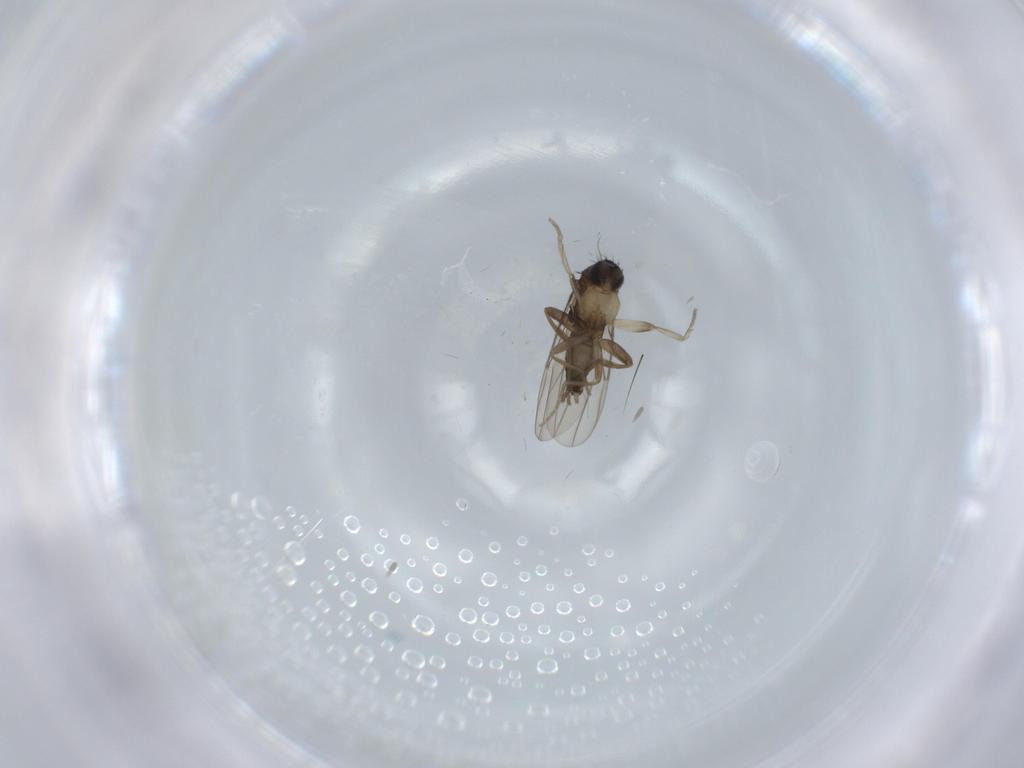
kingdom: Animalia
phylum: Arthropoda
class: Insecta
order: Diptera
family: Phoridae
